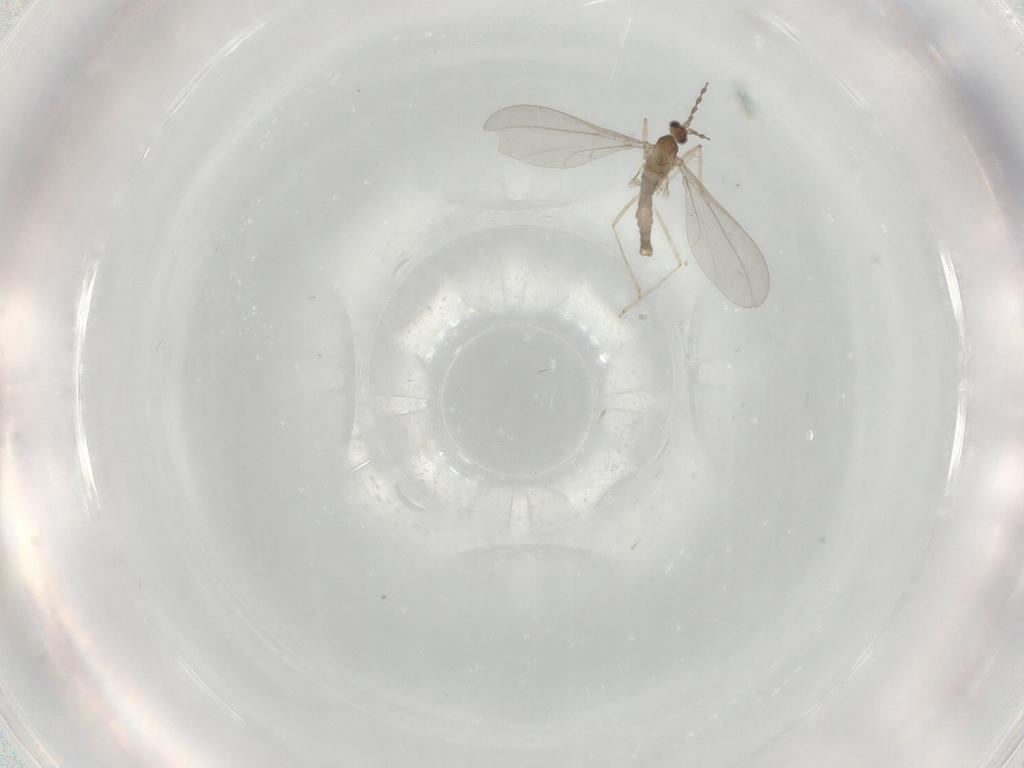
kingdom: Animalia
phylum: Arthropoda
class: Insecta
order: Diptera
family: Cecidomyiidae
